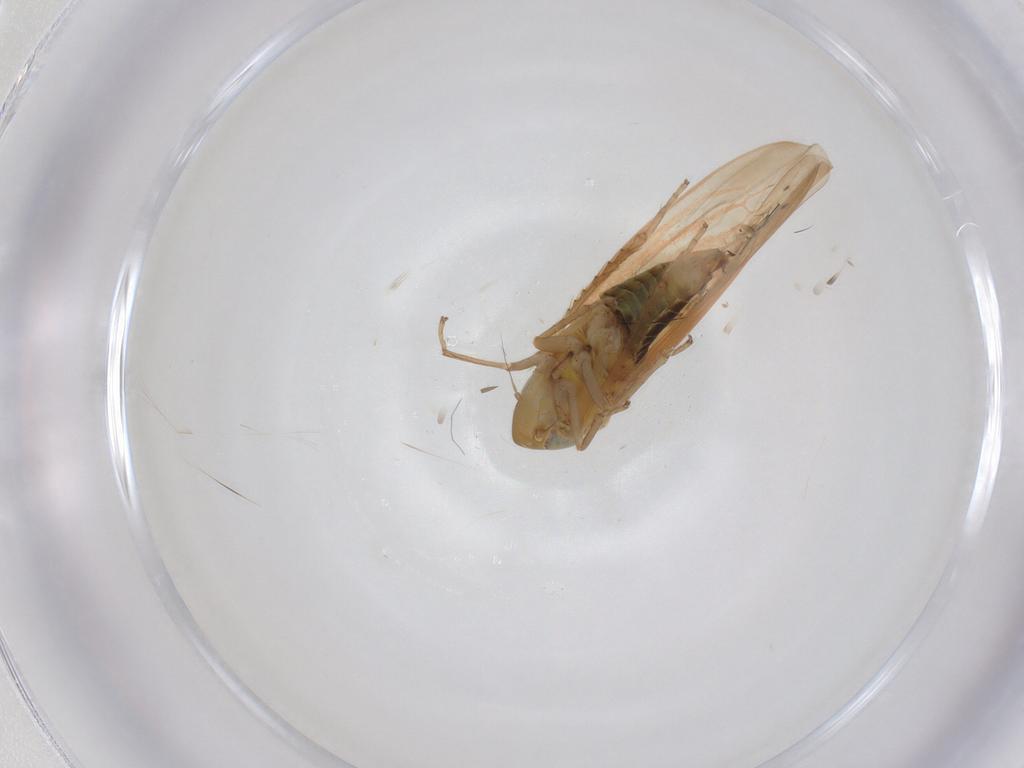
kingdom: Animalia
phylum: Arthropoda
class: Insecta
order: Hemiptera
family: Cicadellidae
